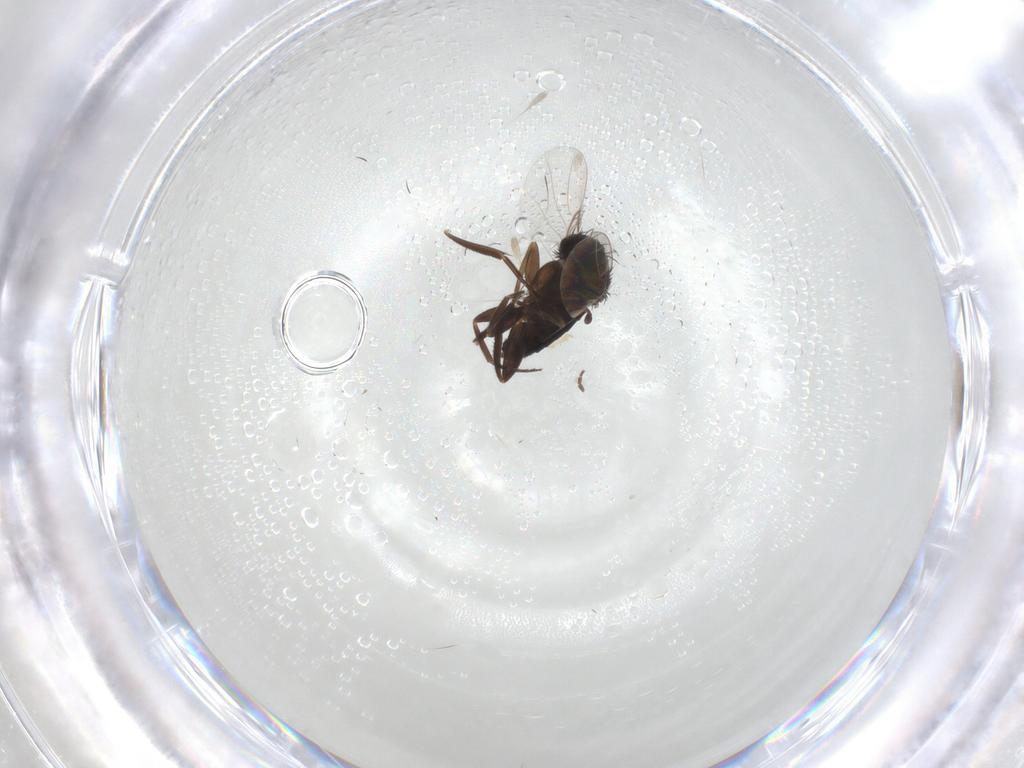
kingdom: Animalia
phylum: Arthropoda
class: Insecta
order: Diptera
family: Phoridae
